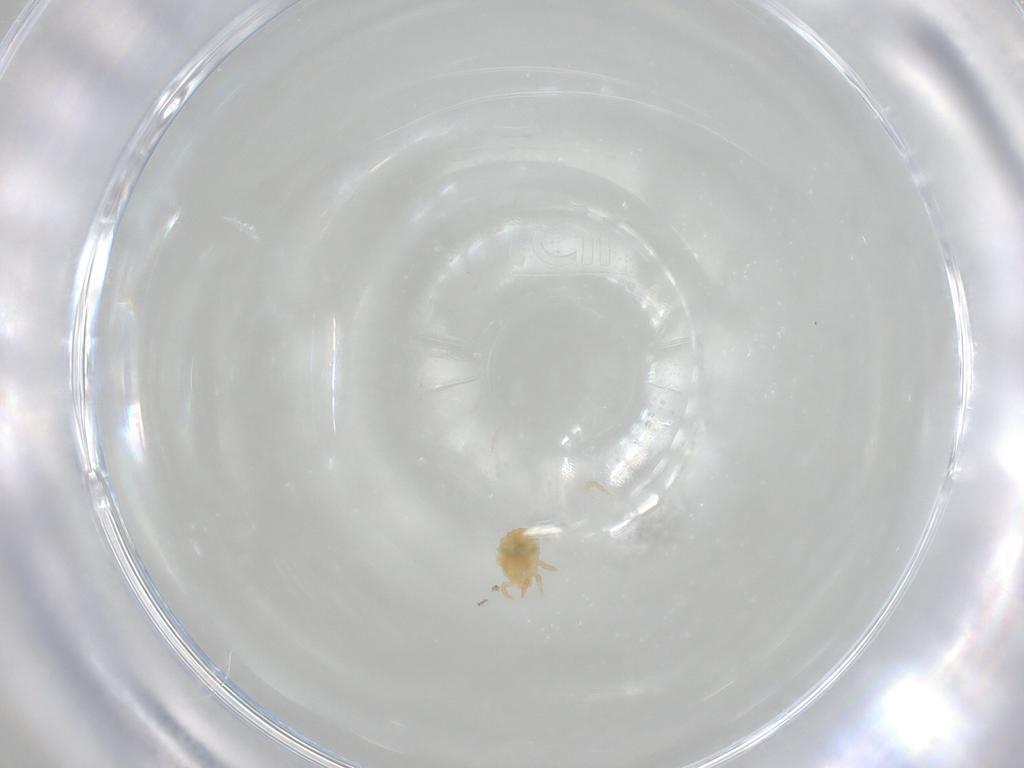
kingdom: Animalia
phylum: Arthropoda
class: Arachnida
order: Mesostigmata
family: Sejidae
